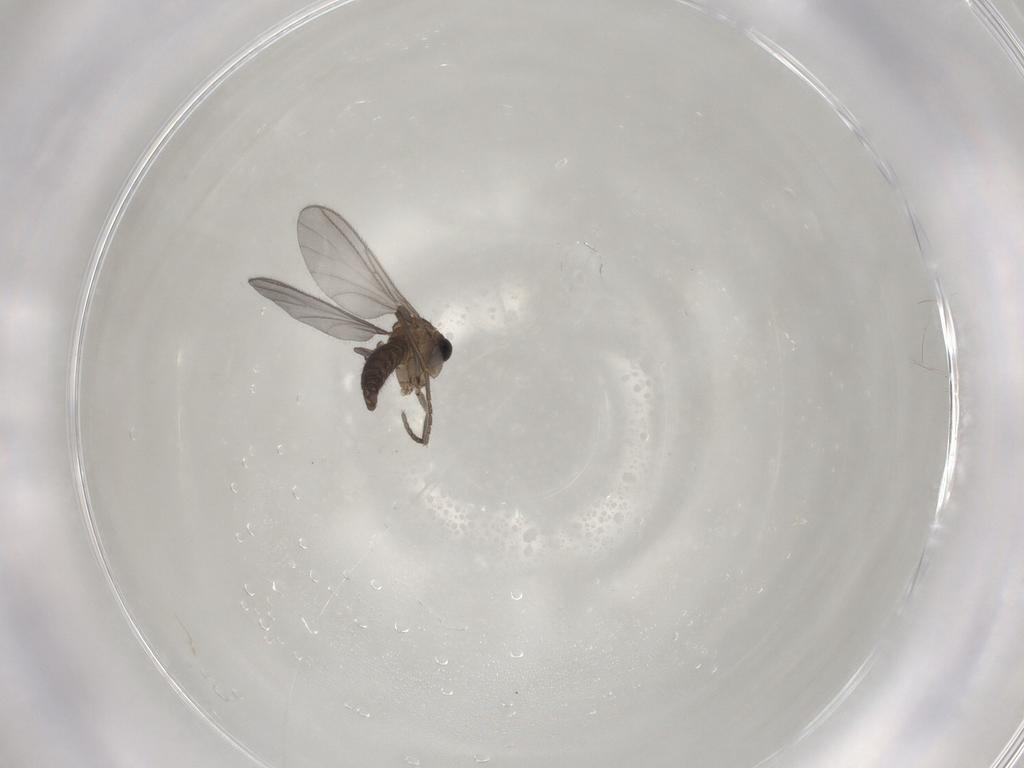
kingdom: Animalia
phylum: Arthropoda
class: Insecta
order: Diptera
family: Sciaridae
